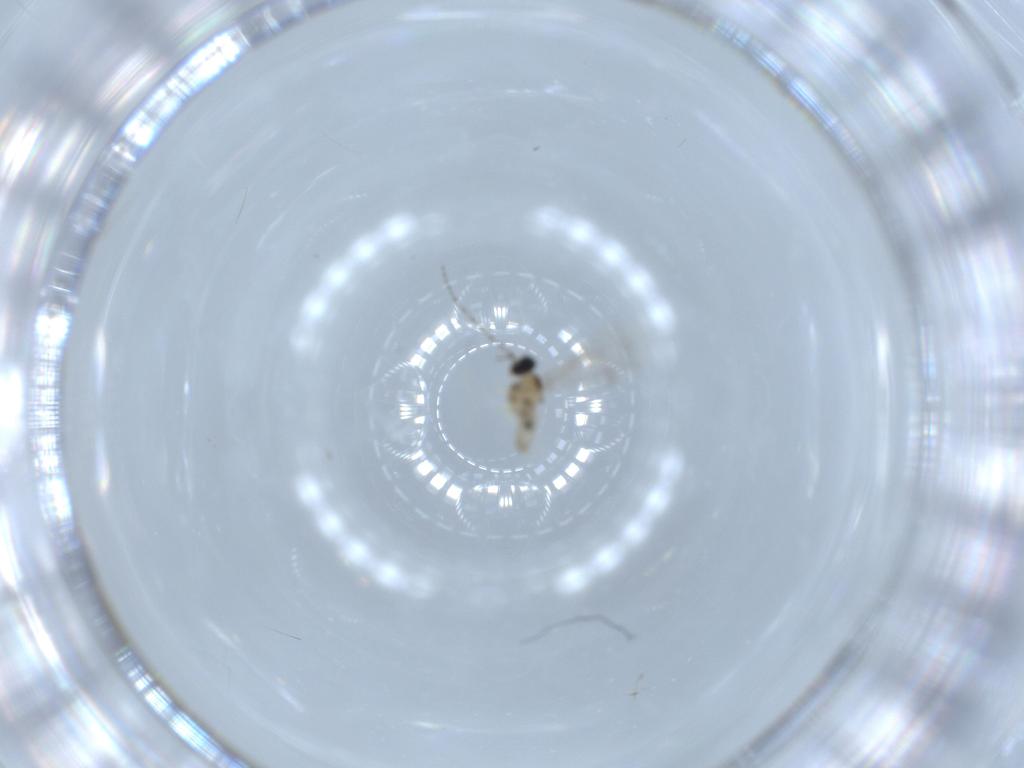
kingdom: Animalia
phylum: Arthropoda
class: Insecta
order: Diptera
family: Cecidomyiidae
